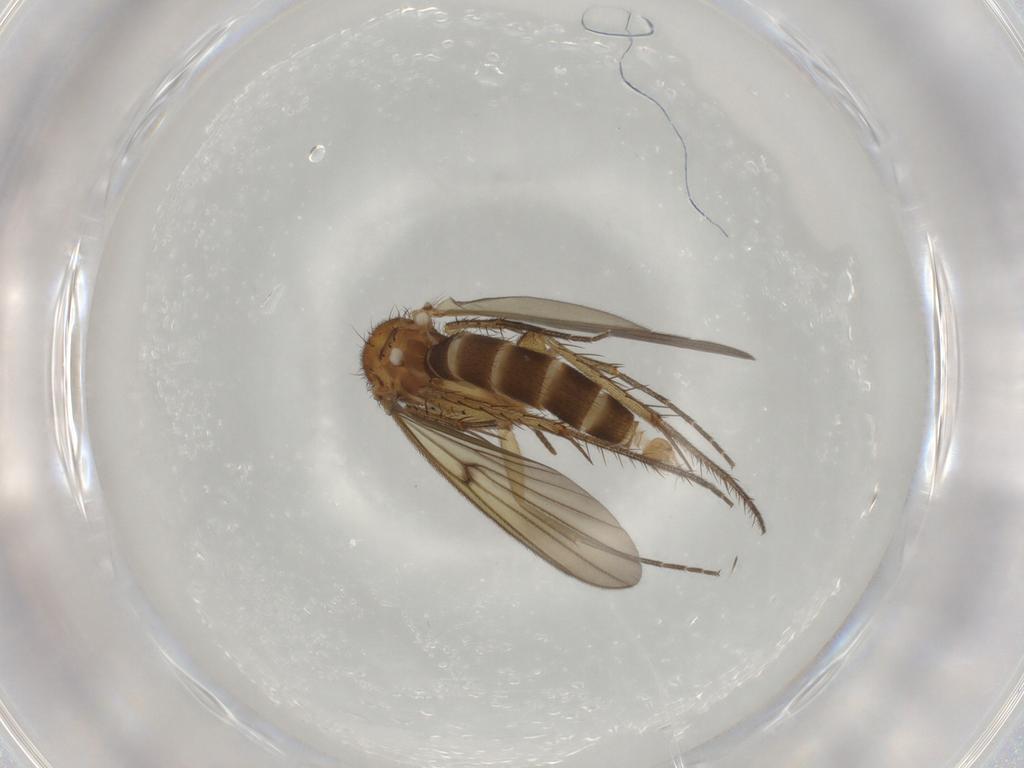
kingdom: Animalia
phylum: Arthropoda
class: Insecta
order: Diptera
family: Mycetophilidae
